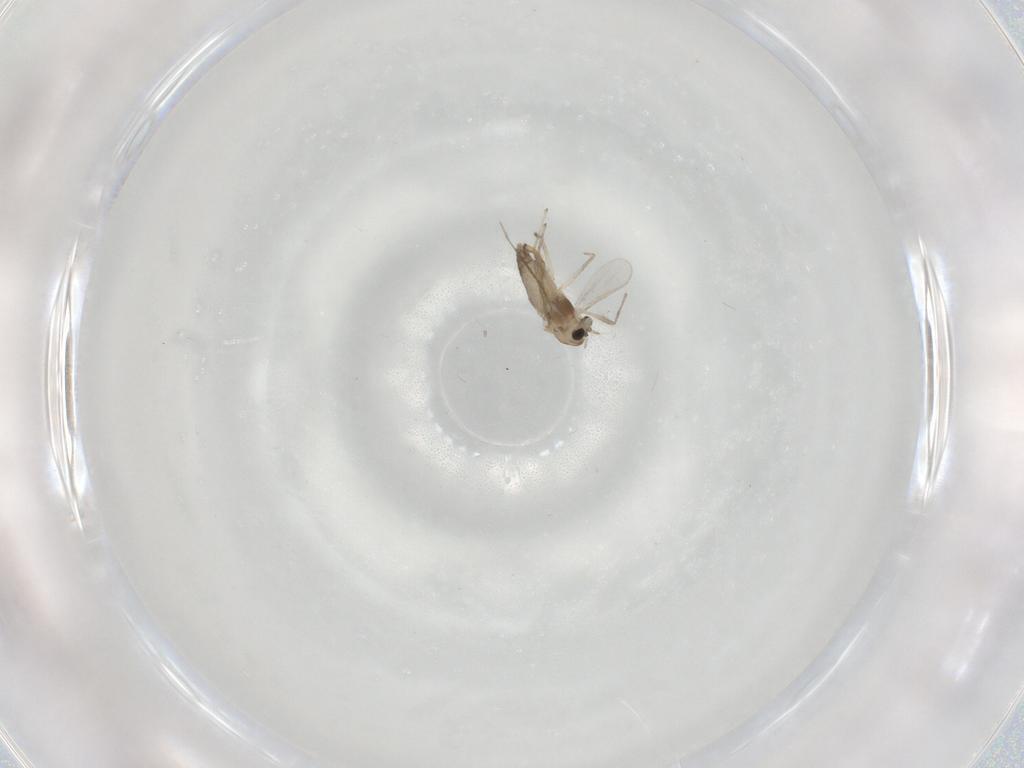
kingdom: Animalia
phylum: Arthropoda
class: Insecta
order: Diptera
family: Chironomidae
